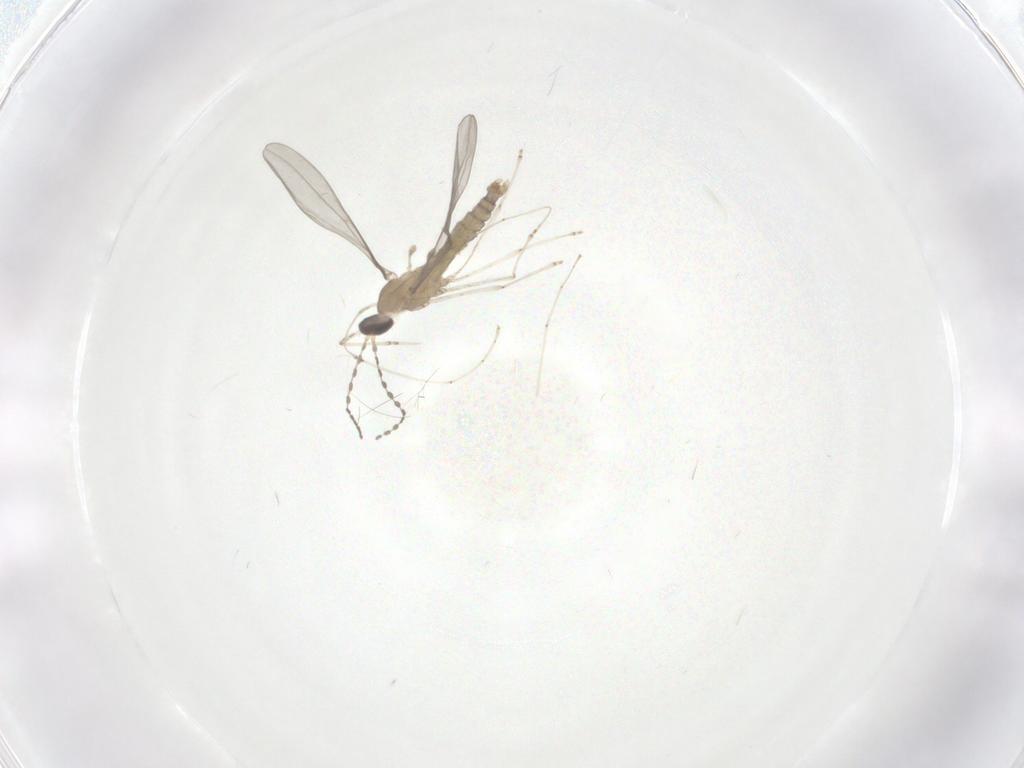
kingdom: Animalia
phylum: Arthropoda
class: Insecta
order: Diptera
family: Cecidomyiidae
